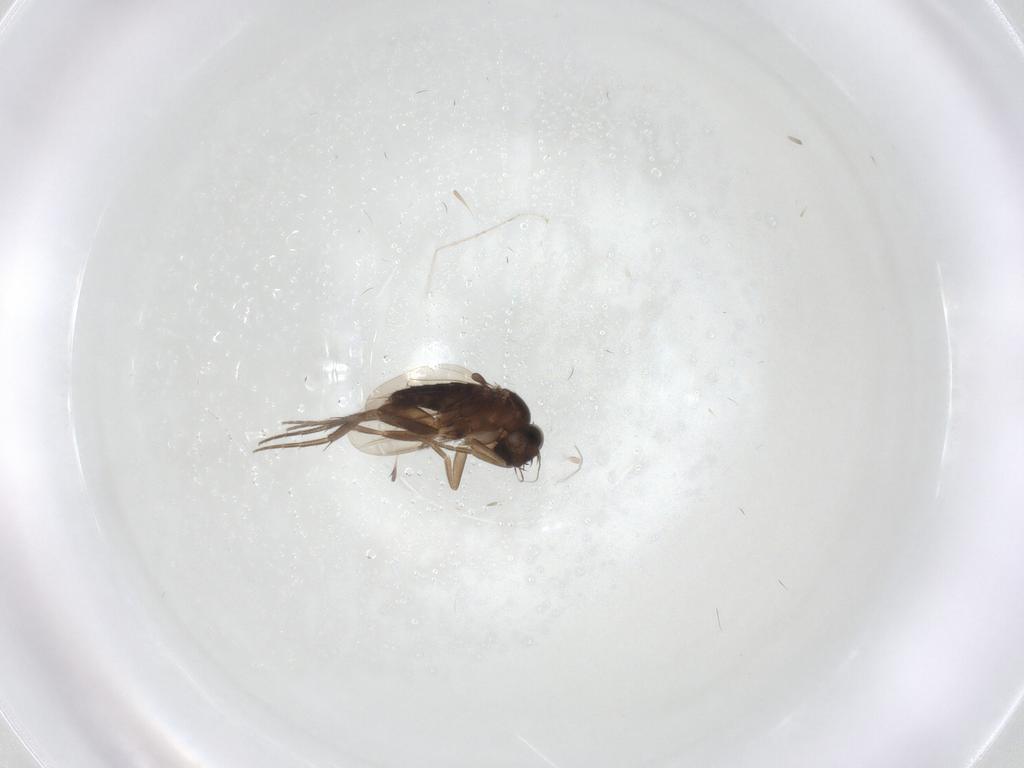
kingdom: Animalia
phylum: Arthropoda
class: Insecta
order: Diptera
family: Phoridae
